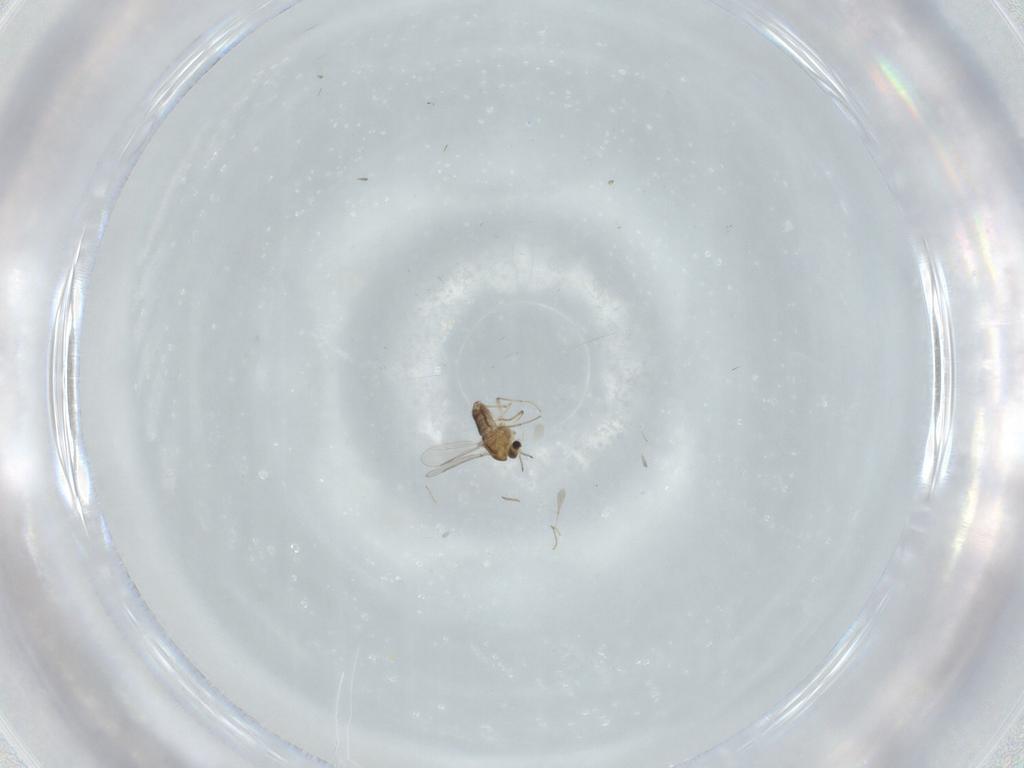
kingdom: Animalia
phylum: Arthropoda
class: Insecta
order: Diptera
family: Chironomidae
